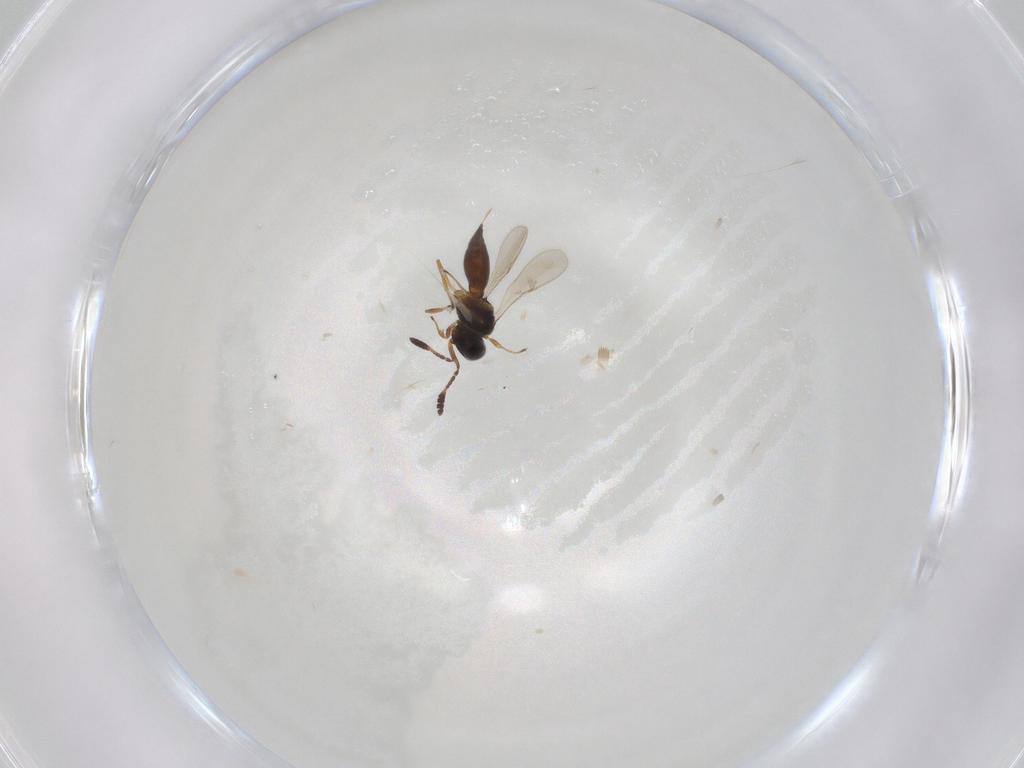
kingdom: Animalia
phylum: Arthropoda
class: Insecta
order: Hymenoptera
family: Scelionidae
